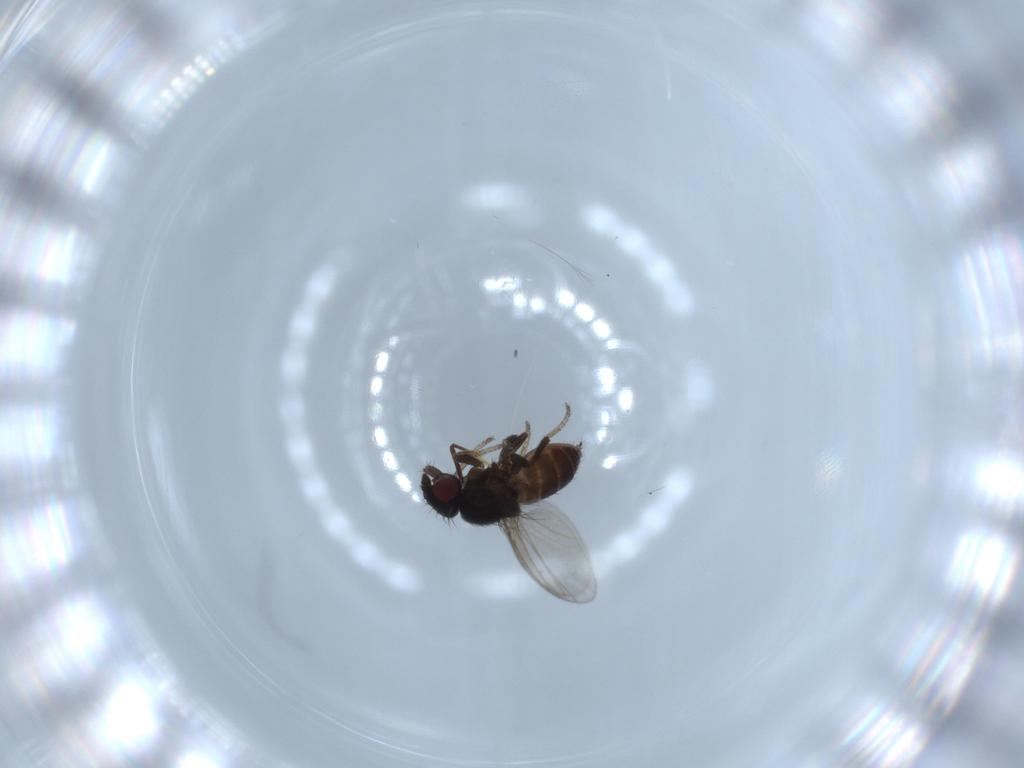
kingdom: Animalia
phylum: Arthropoda
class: Insecta
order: Diptera
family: Milichiidae
